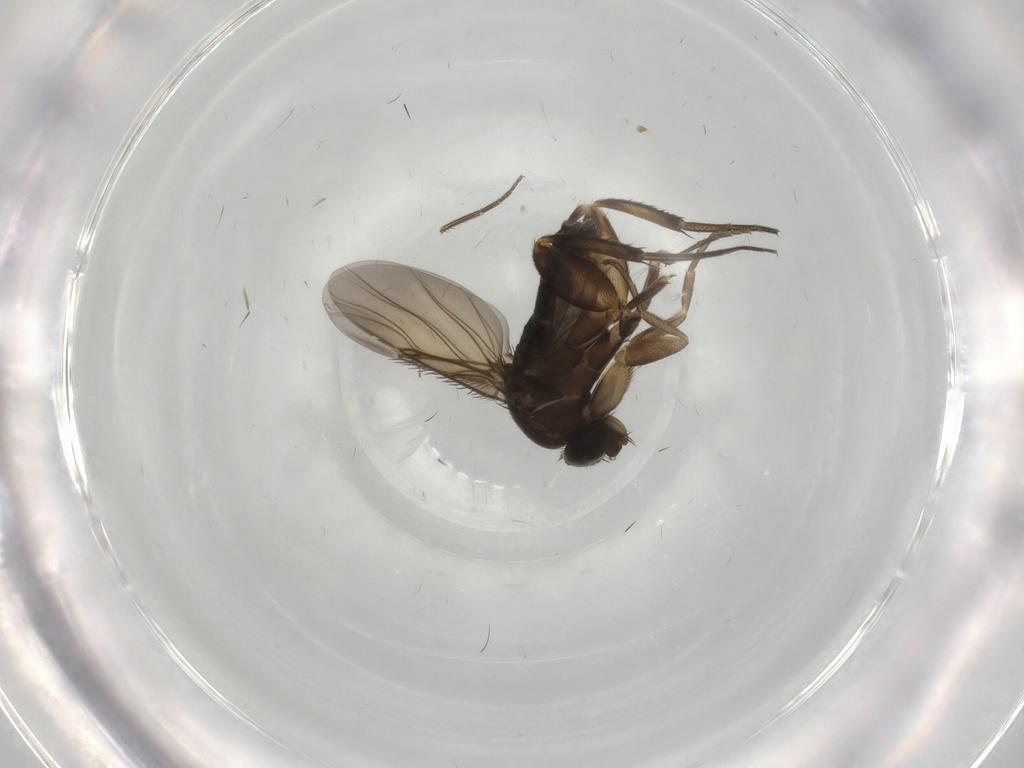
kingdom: Animalia
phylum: Arthropoda
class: Insecta
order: Diptera
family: Phoridae
